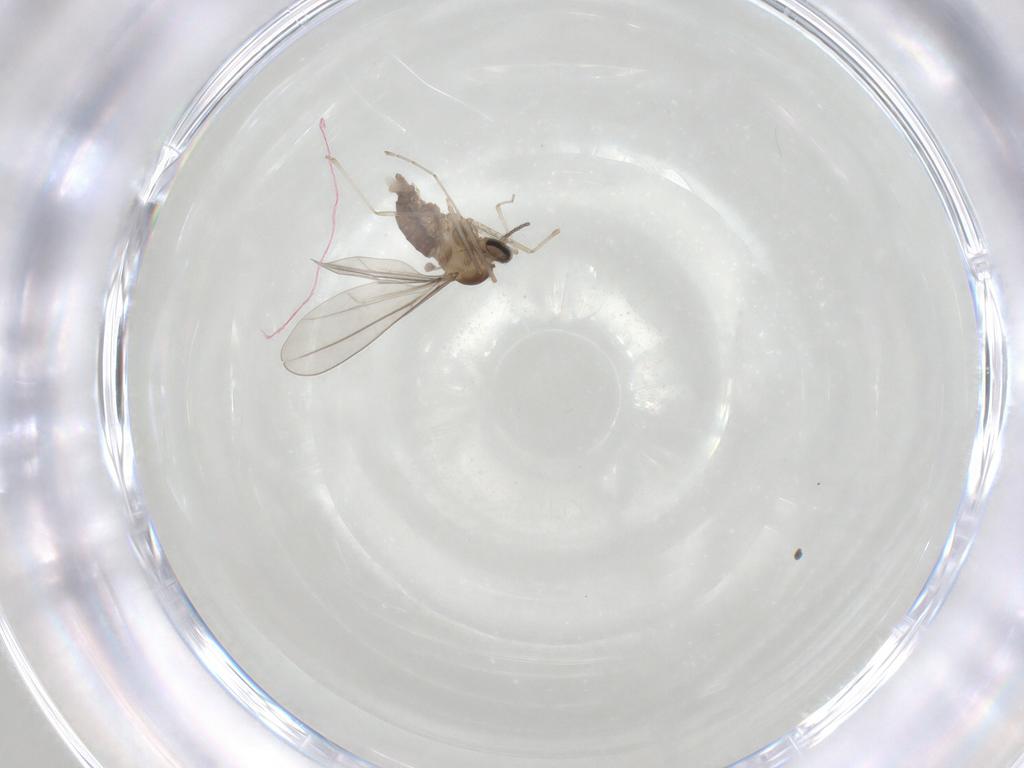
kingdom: Animalia
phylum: Arthropoda
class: Insecta
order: Diptera
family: Cecidomyiidae
